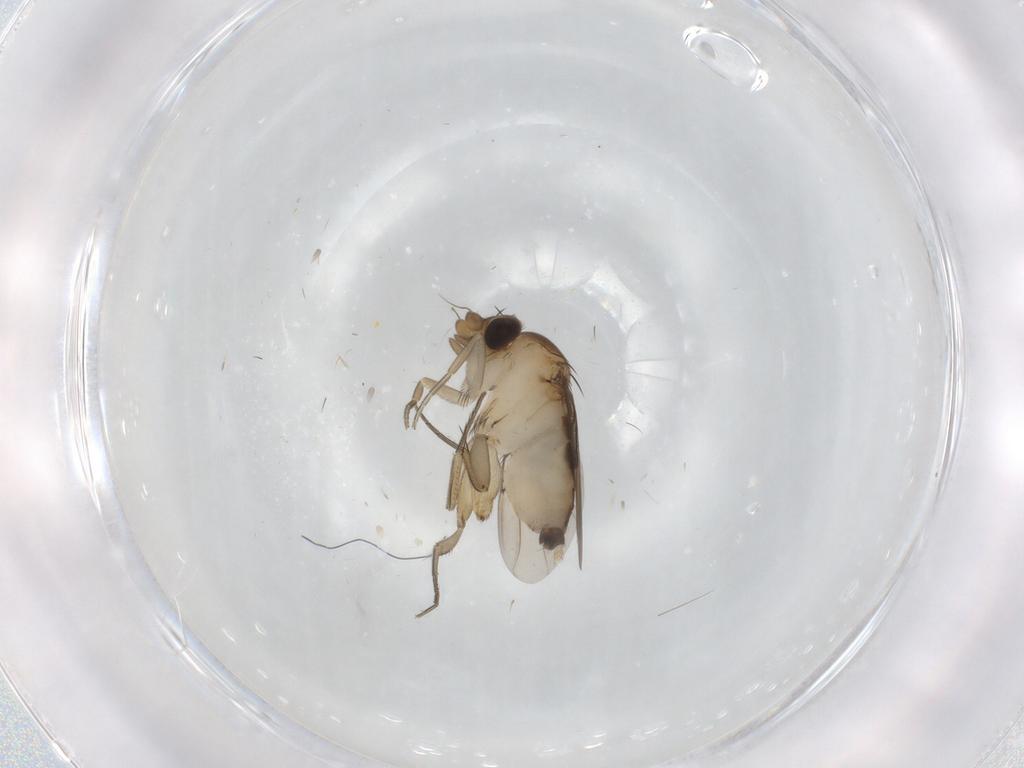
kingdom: Animalia
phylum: Arthropoda
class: Insecta
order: Diptera
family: Phoridae
